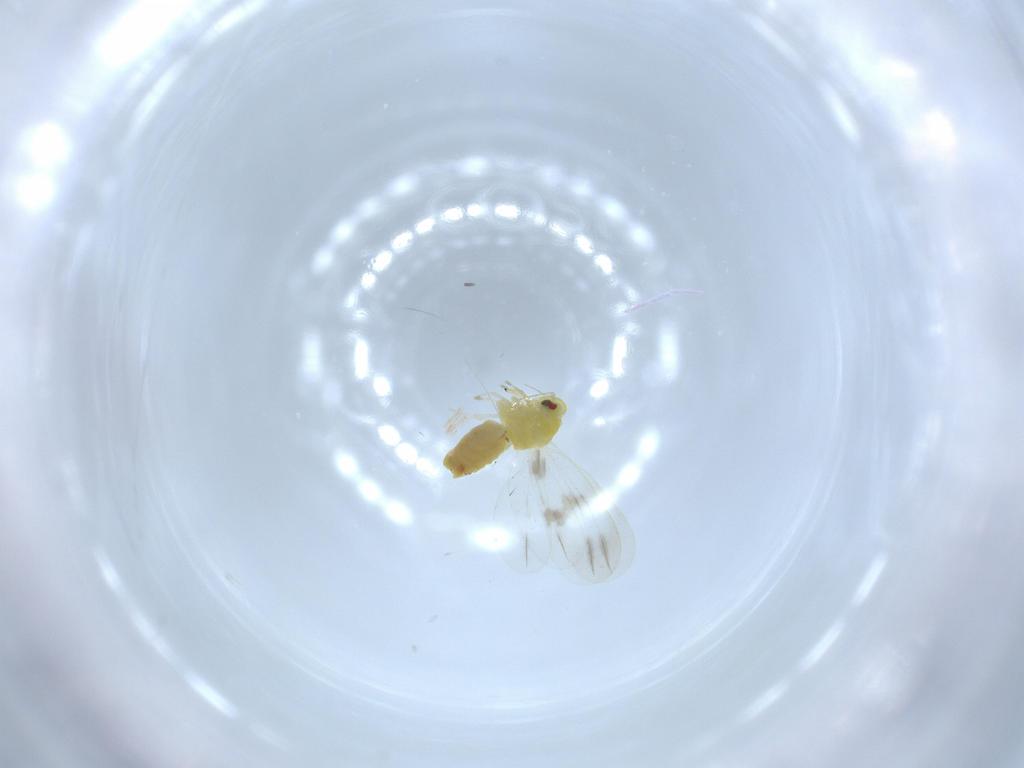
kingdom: Animalia
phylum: Arthropoda
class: Insecta
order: Hemiptera
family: Aleyrodidae
